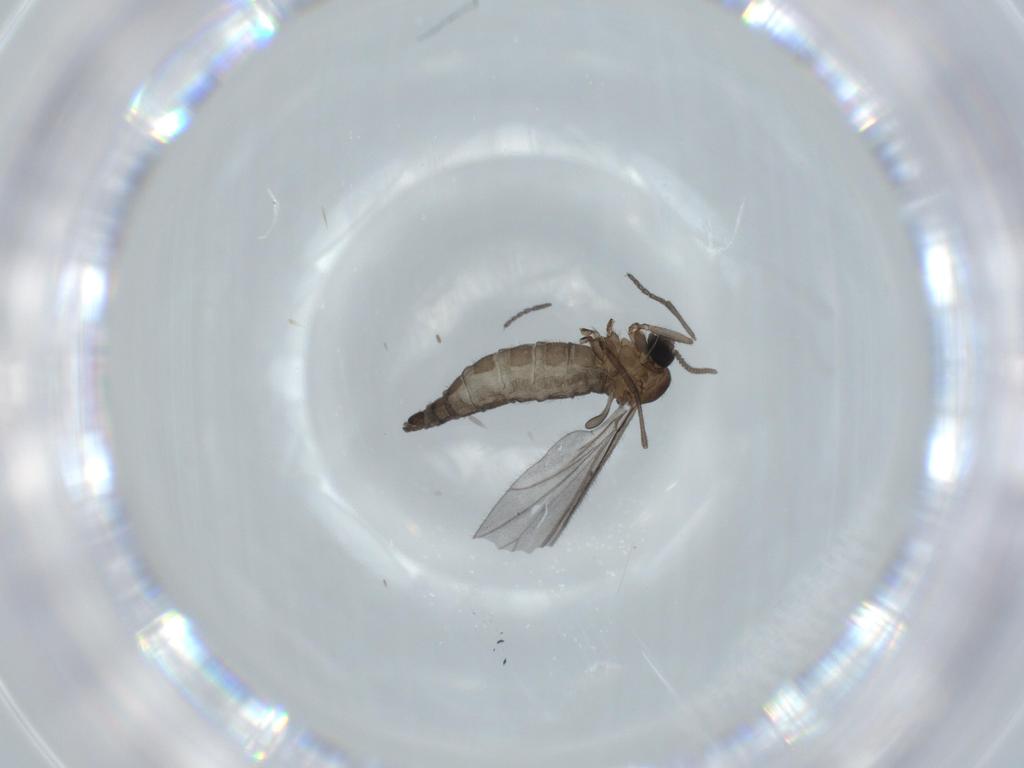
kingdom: Animalia
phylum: Arthropoda
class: Insecta
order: Diptera
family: Sciaridae
